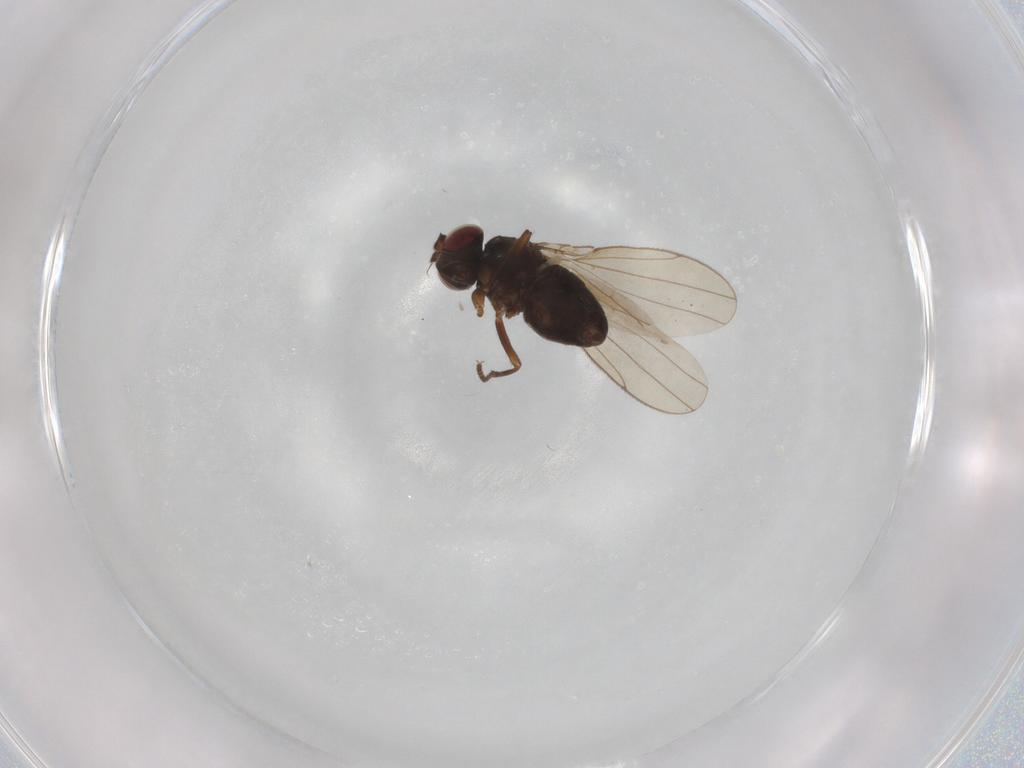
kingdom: Animalia
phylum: Arthropoda
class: Insecta
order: Diptera
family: Ephydridae
